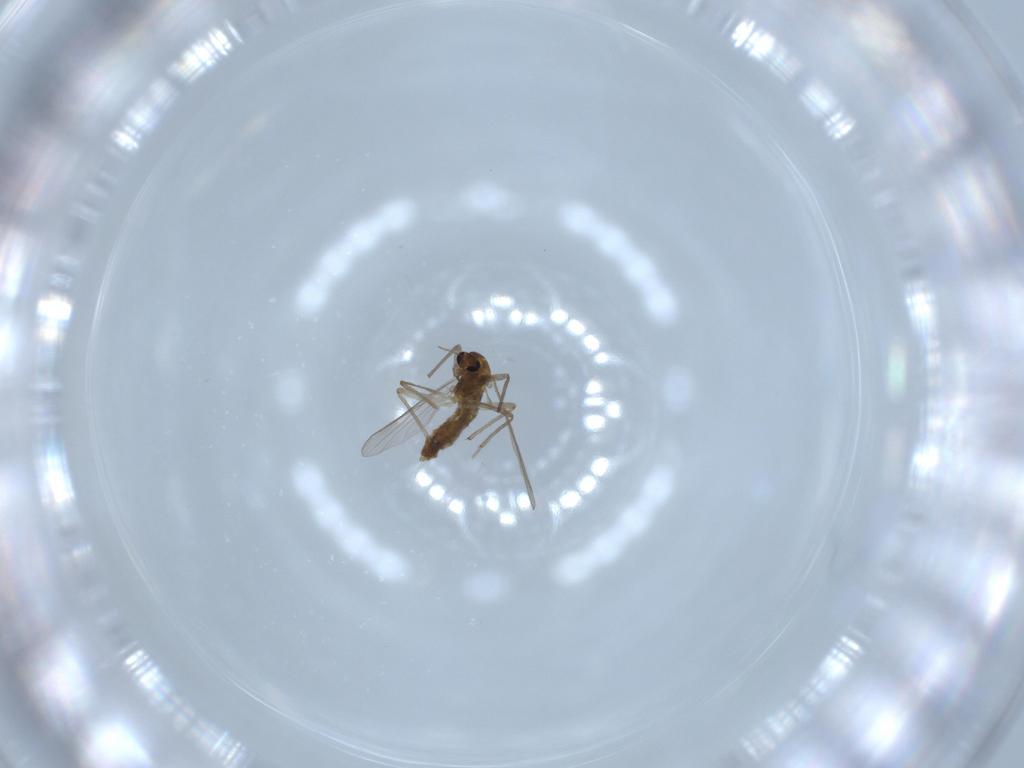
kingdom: Animalia
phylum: Arthropoda
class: Insecta
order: Diptera
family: Chironomidae
